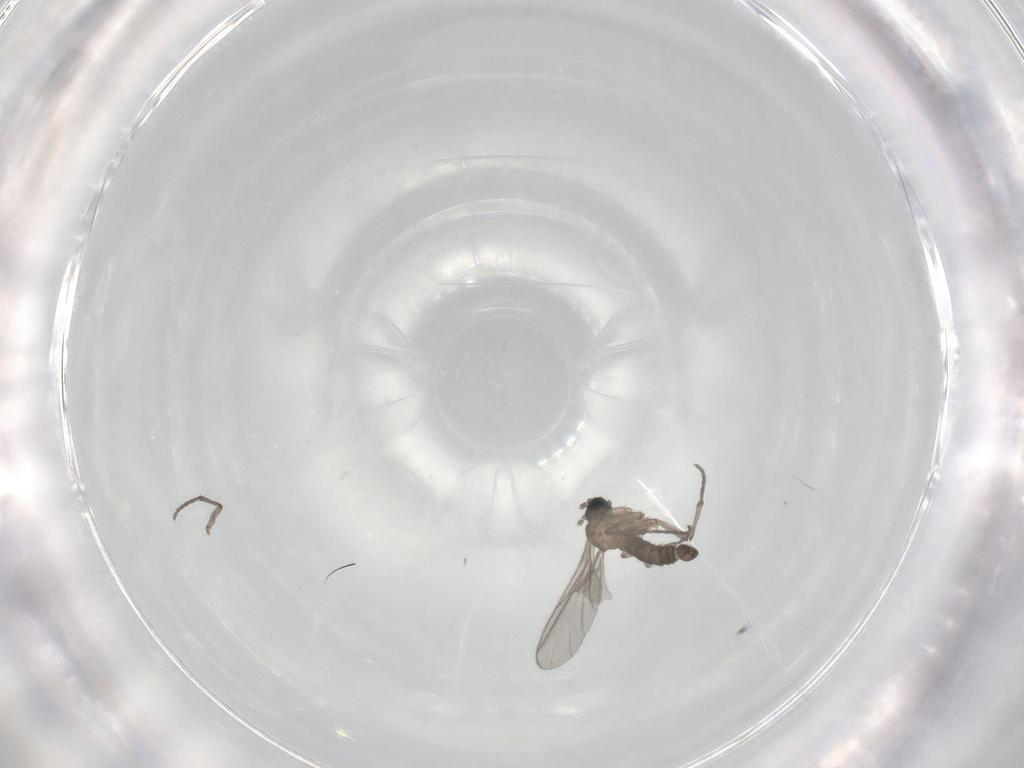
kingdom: Animalia
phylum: Arthropoda
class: Insecta
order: Diptera
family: Sciaridae
